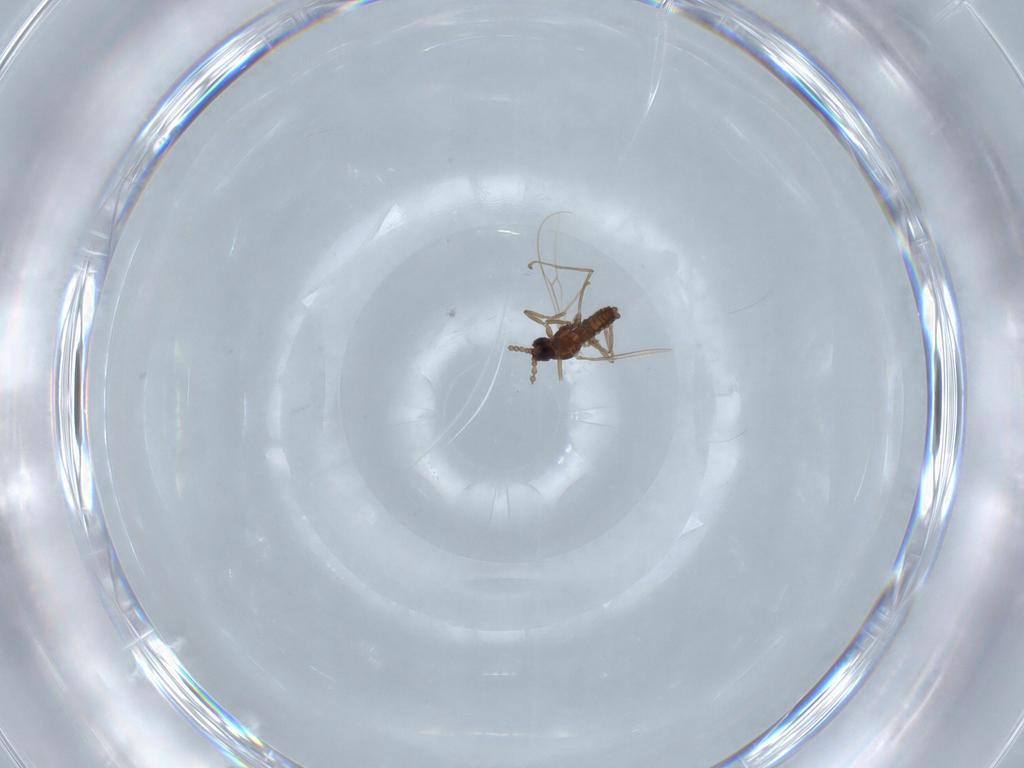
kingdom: Animalia
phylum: Arthropoda
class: Insecta
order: Diptera
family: Cecidomyiidae
